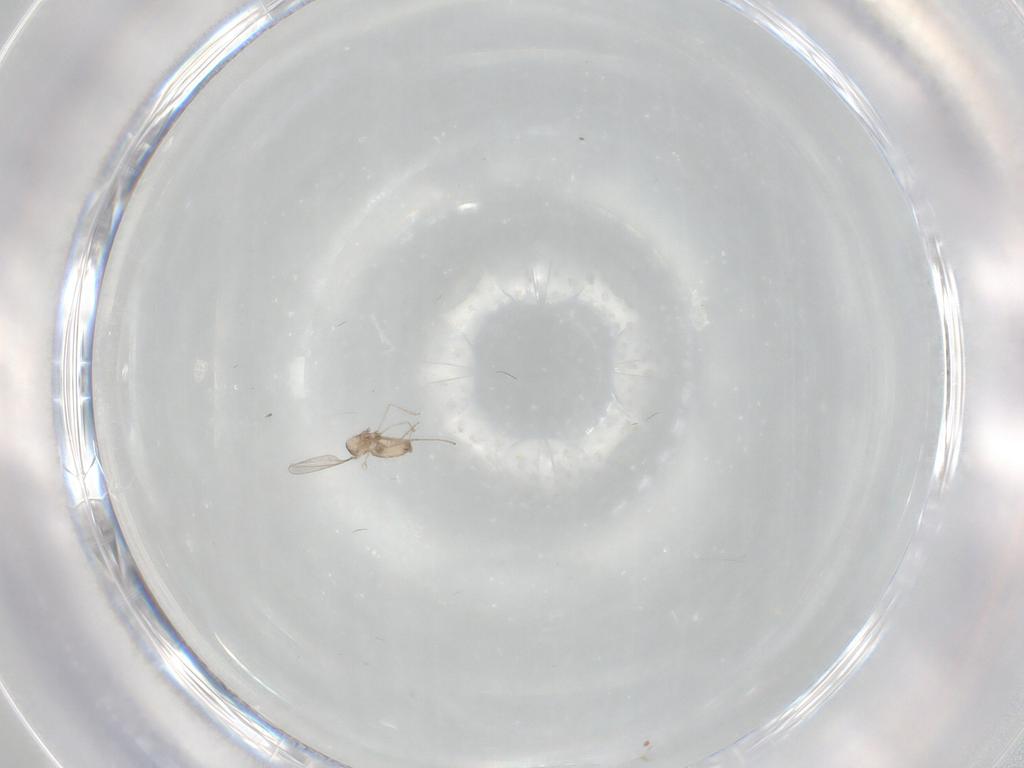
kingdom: Animalia
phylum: Arthropoda
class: Insecta
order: Diptera
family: Cecidomyiidae
